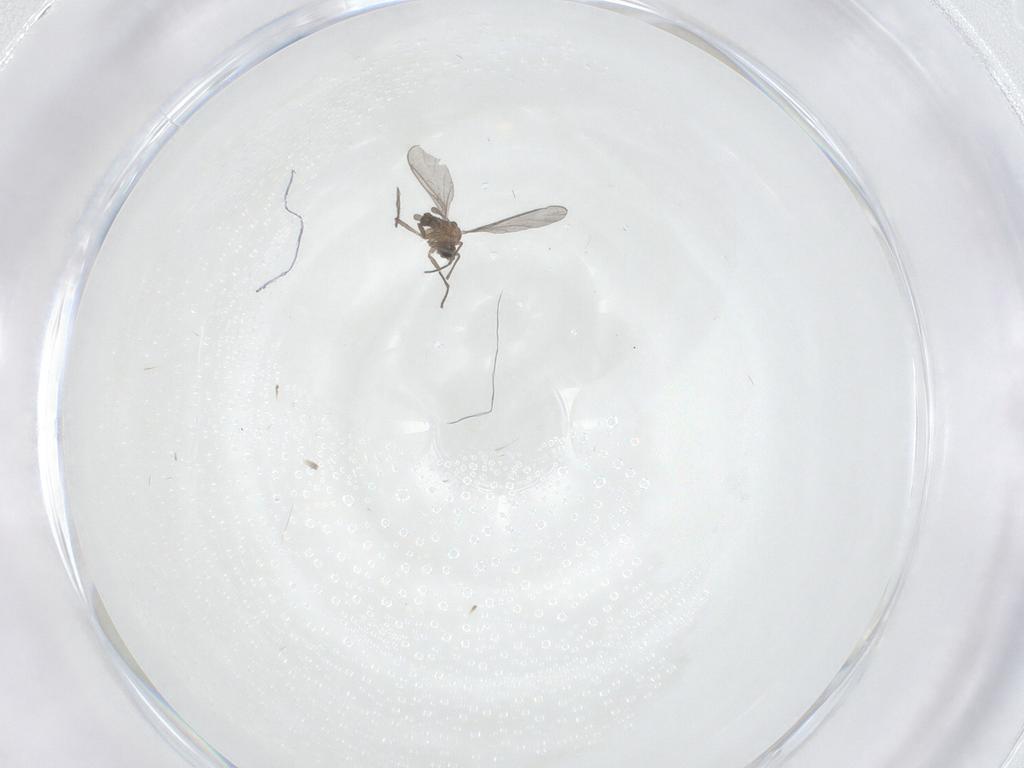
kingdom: Animalia
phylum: Arthropoda
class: Insecta
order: Diptera
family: Sciaridae
